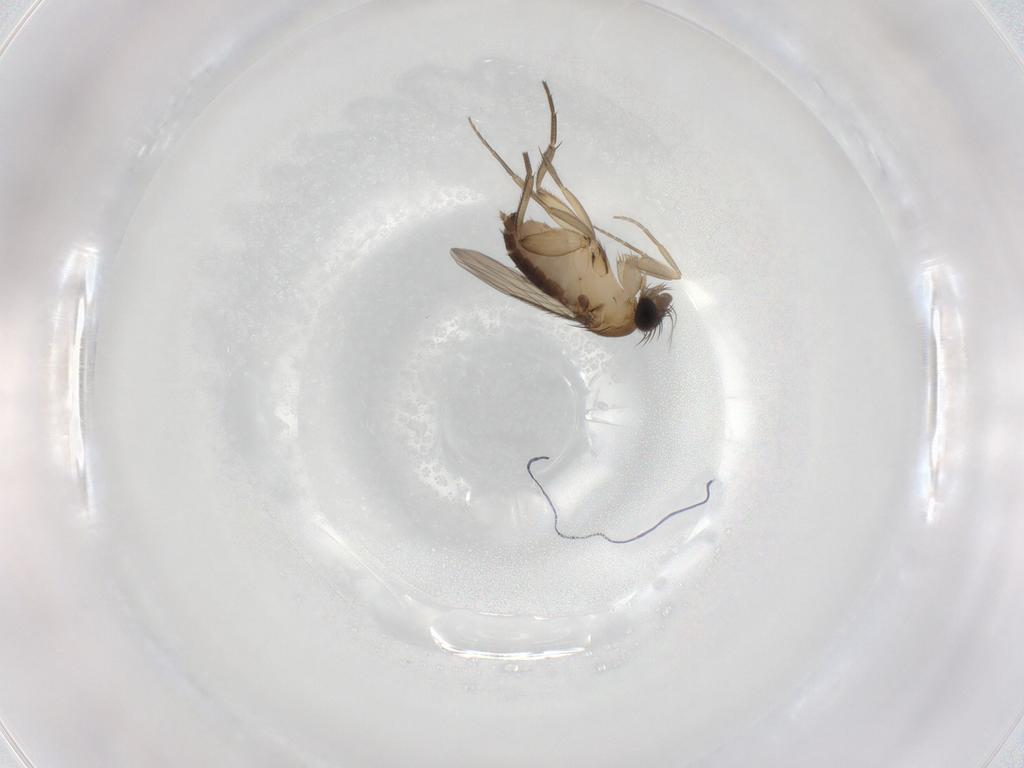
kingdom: Animalia
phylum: Arthropoda
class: Insecta
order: Diptera
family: Phoridae
